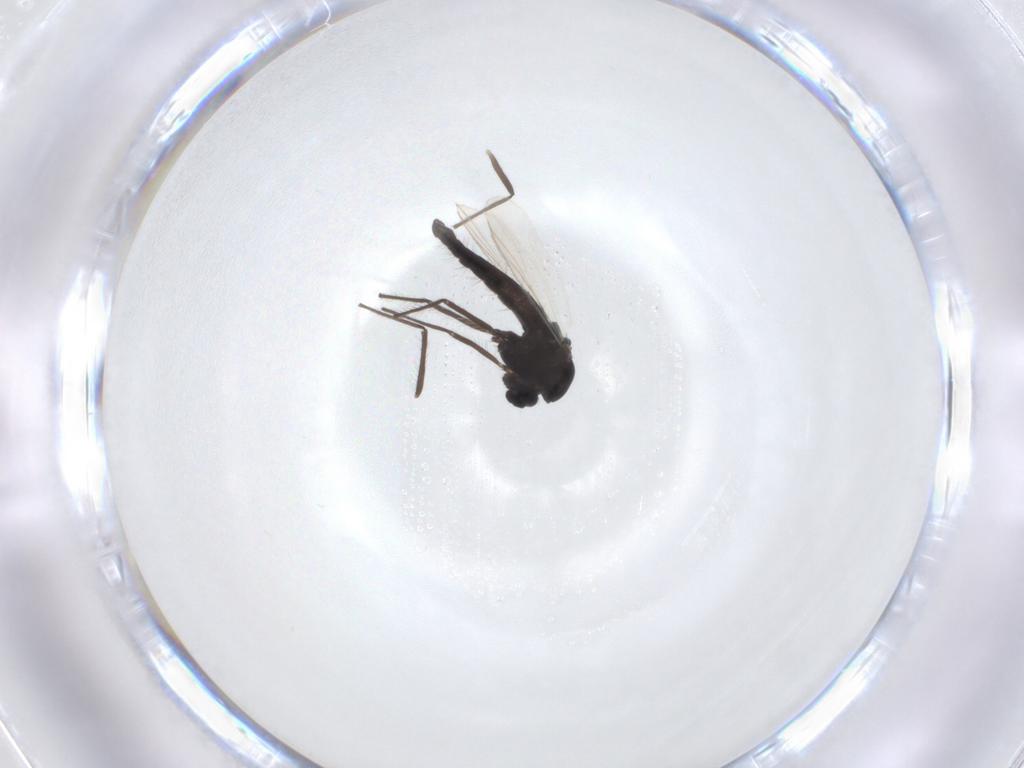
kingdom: Animalia
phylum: Arthropoda
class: Insecta
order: Diptera
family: Chironomidae
